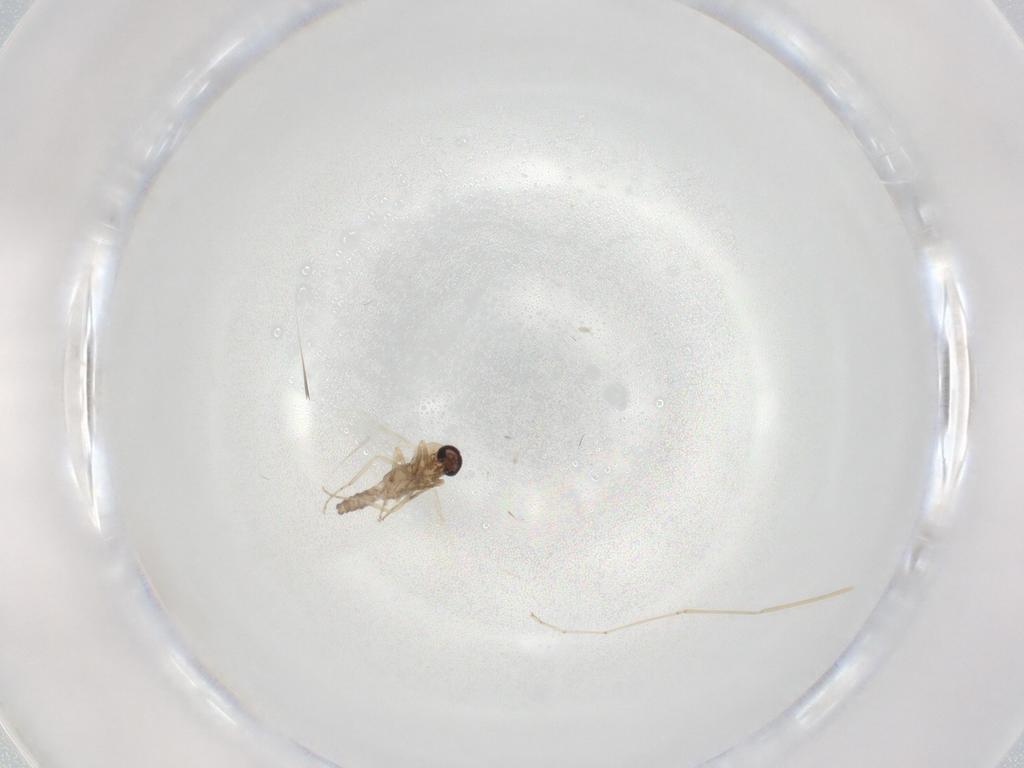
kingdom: Animalia
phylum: Arthropoda
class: Insecta
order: Diptera
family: Ceratopogonidae
